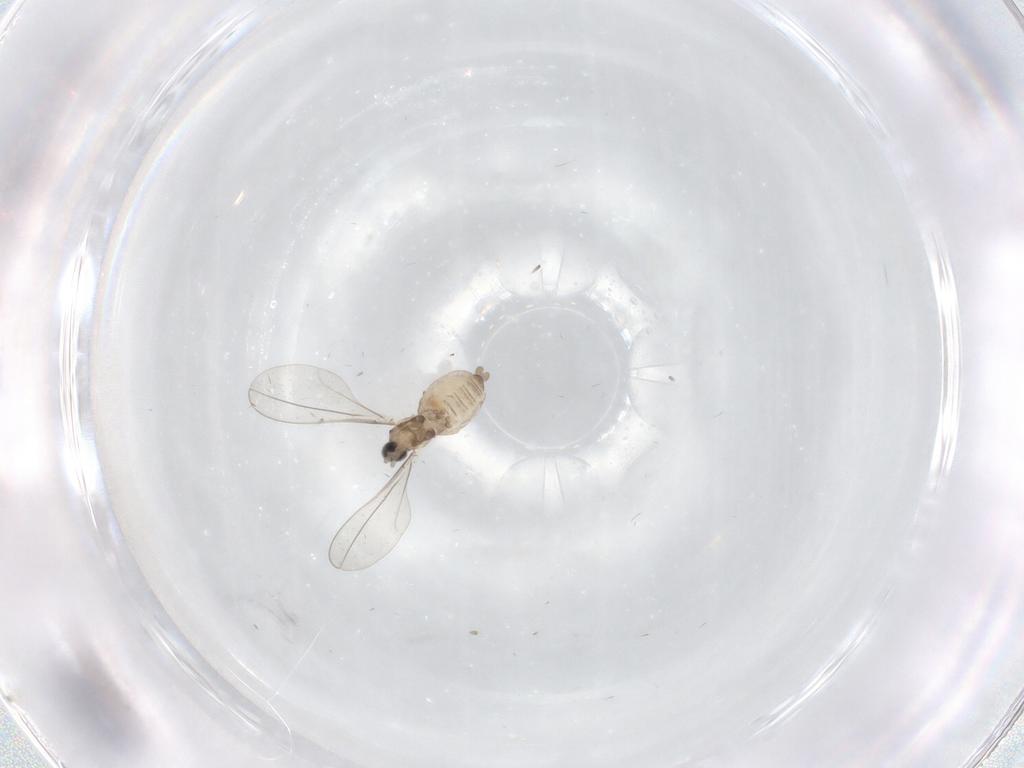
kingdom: Animalia
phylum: Arthropoda
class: Insecta
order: Diptera
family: Cecidomyiidae
